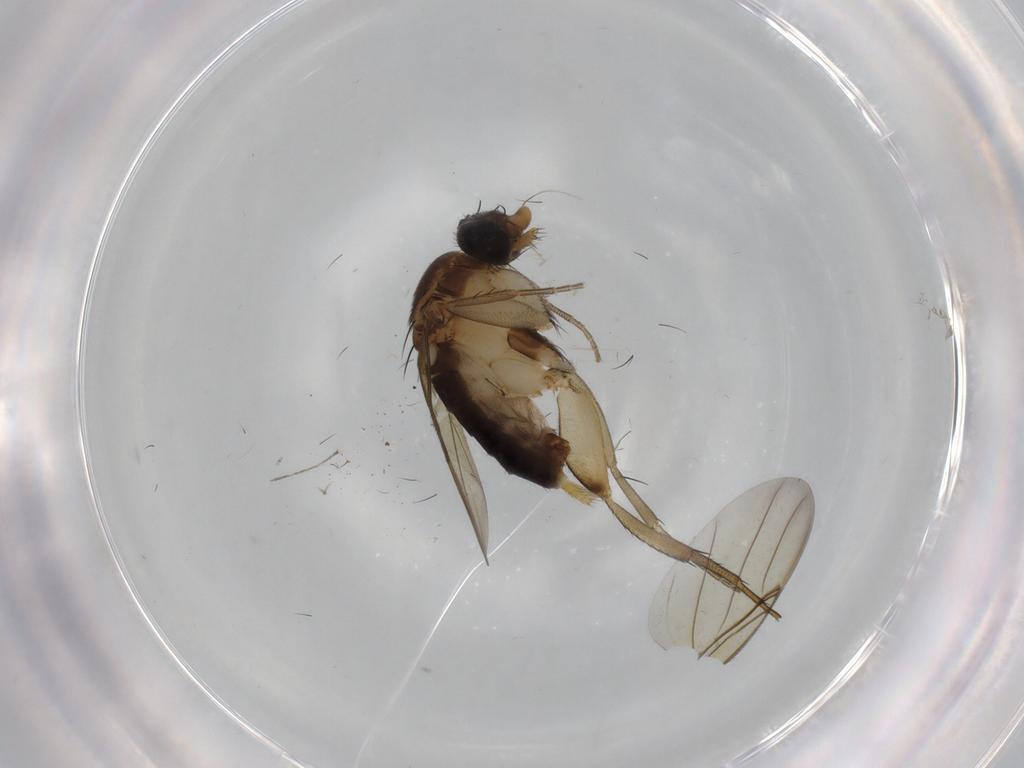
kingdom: Animalia
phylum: Arthropoda
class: Insecta
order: Diptera
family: Phoridae
